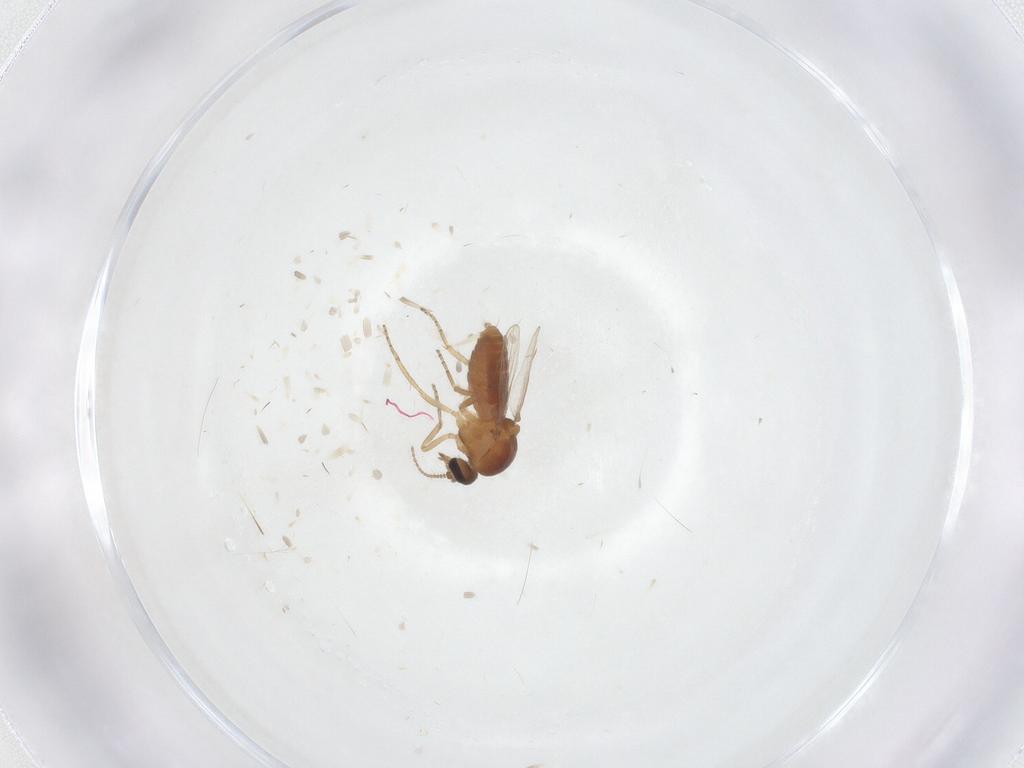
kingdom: Animalia
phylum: Arthropoda
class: Insecta
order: Diptera
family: Ceratopogonidae
